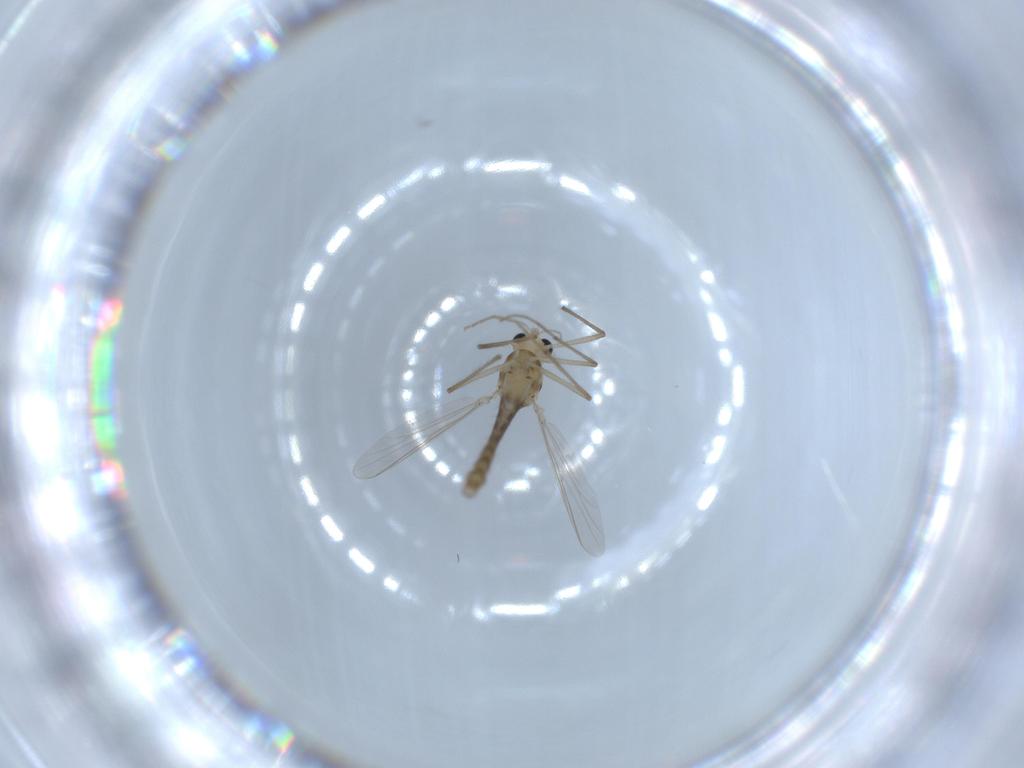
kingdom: Animalia
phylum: Arthropoda
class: Insecta
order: Diptera
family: Chironomidae
